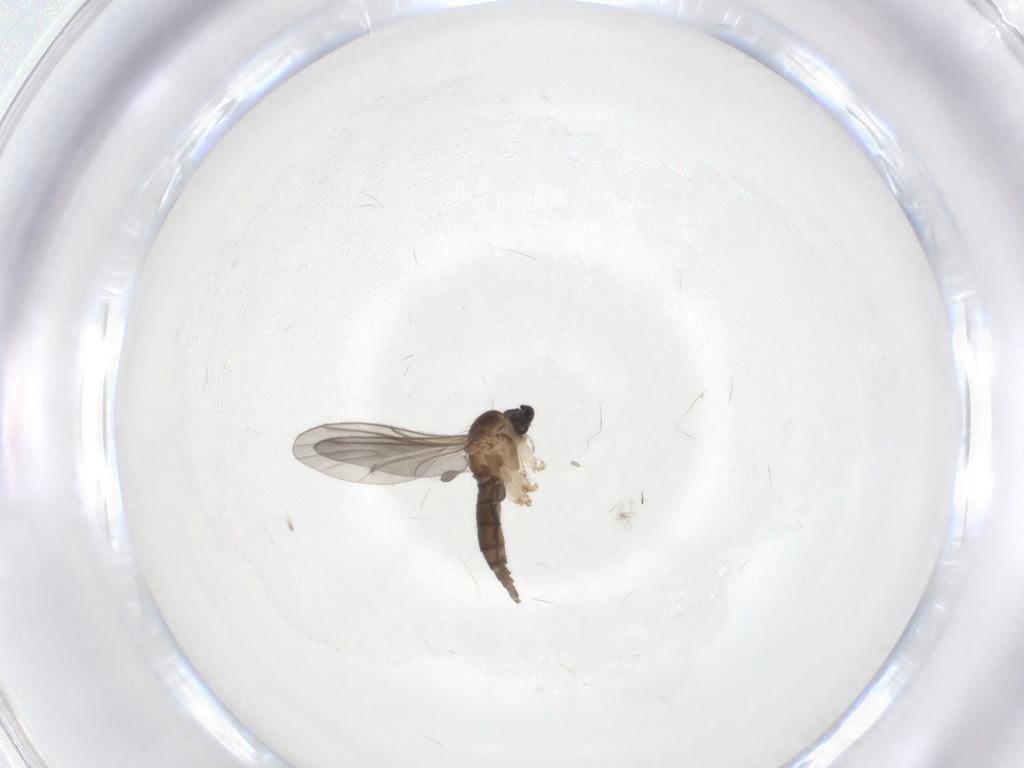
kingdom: Animalia
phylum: Arthropoda
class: Insecta
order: Diptera
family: Sciaridae
